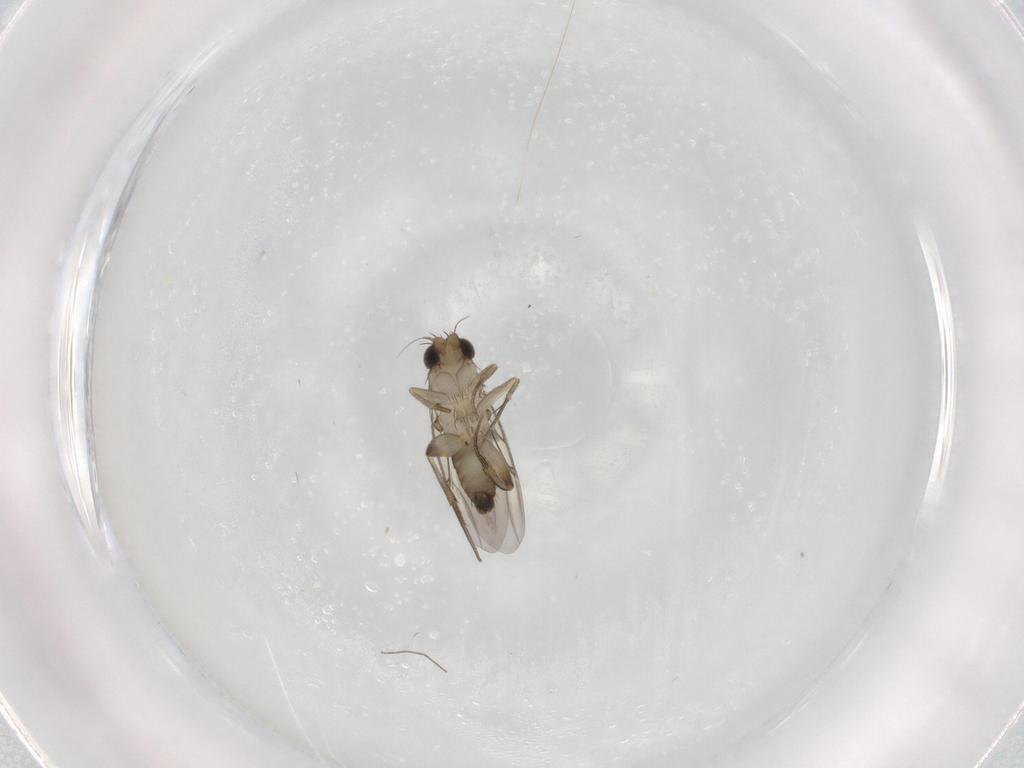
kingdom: Animalia
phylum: Arthropoda
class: Insecta
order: Diptera
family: Phoridae
